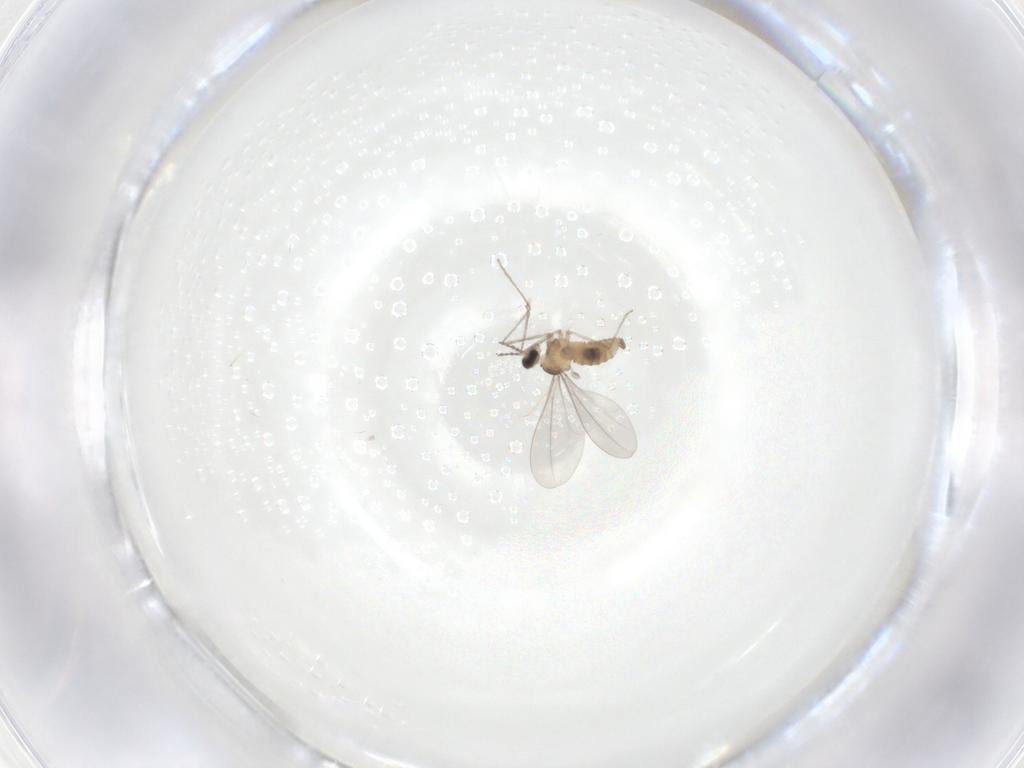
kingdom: Animalia
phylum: Arthropoda
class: Insecta
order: Diptera
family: Cecidomyiidae
